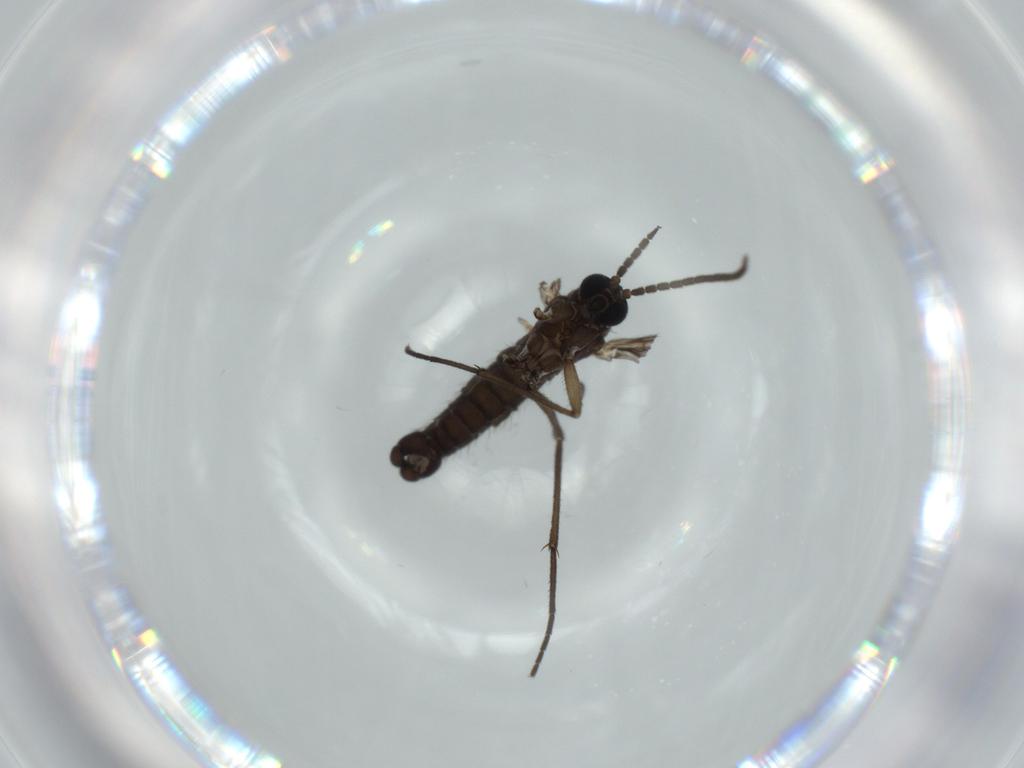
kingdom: Animalia
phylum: Arthropoda
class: Insecta
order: Diptera
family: Sciaridae
